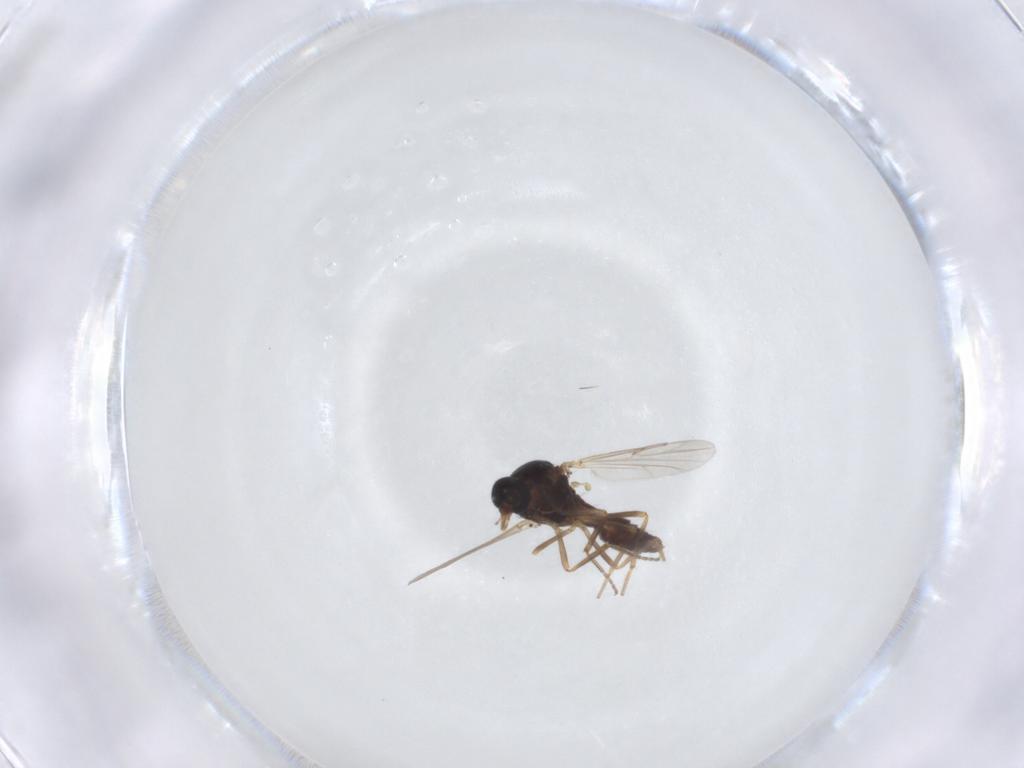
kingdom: Animalia
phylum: Arthropoda
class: Insecta
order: Diptera
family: Ceratopogonidae
